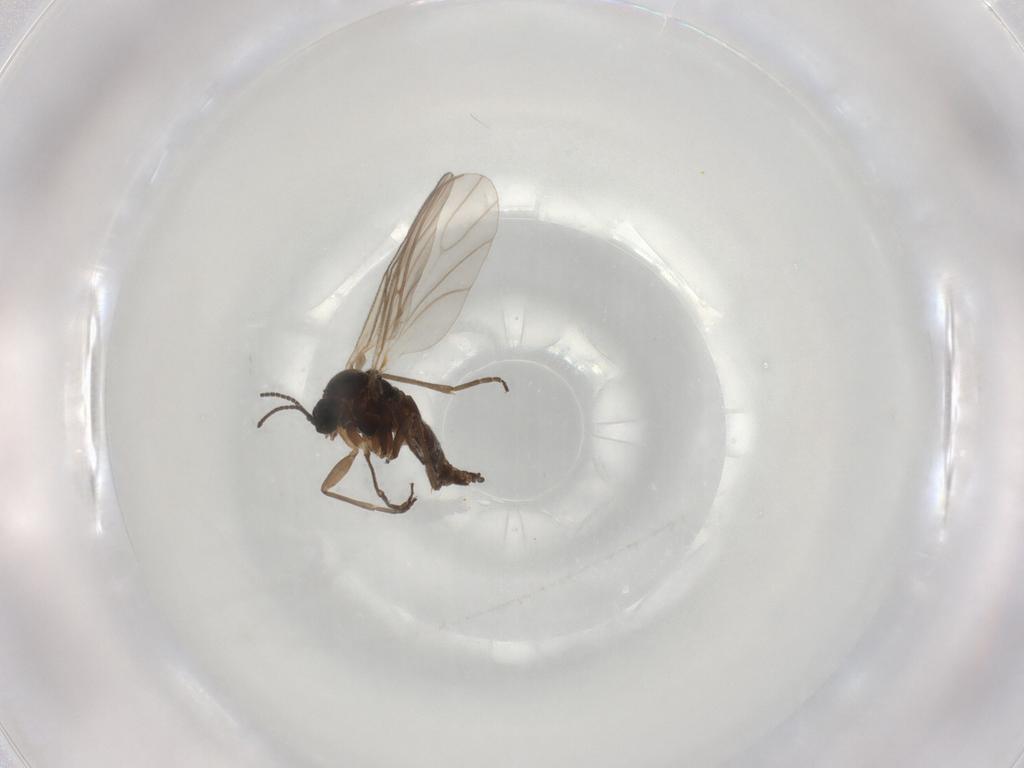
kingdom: Animalia
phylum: Arthropoda
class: Insecta
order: Diptera
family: Sciaridae
